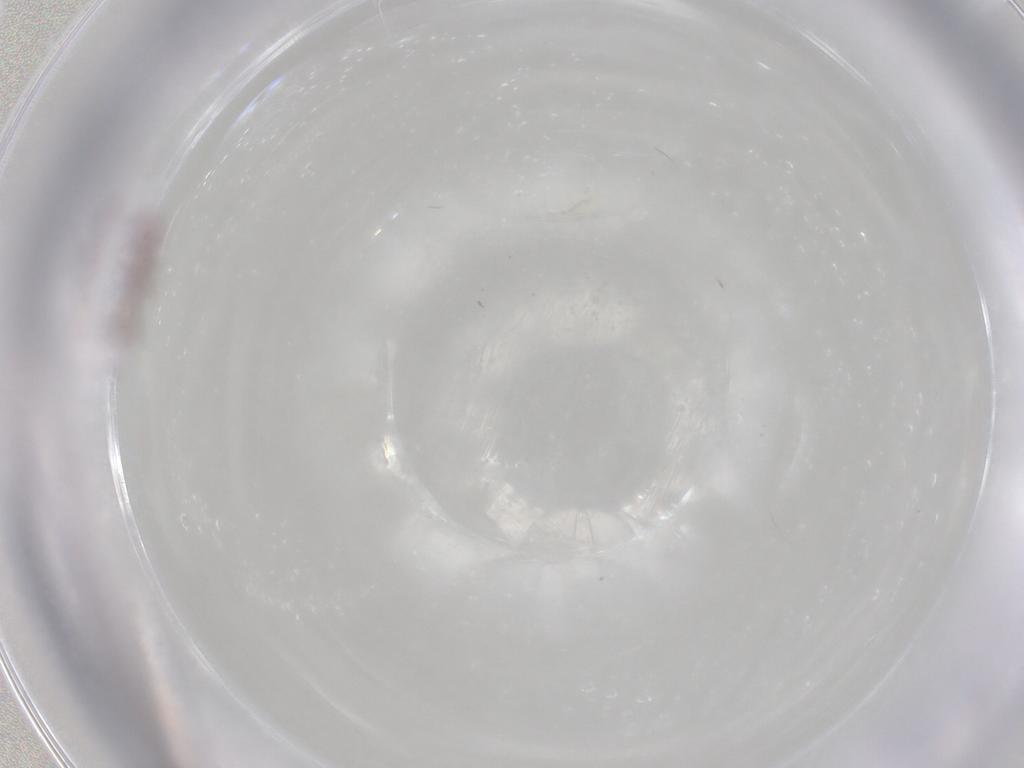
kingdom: Animalia
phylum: Arthropoda
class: Collembola
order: Entomobryomorpha
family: Entomobryidae
